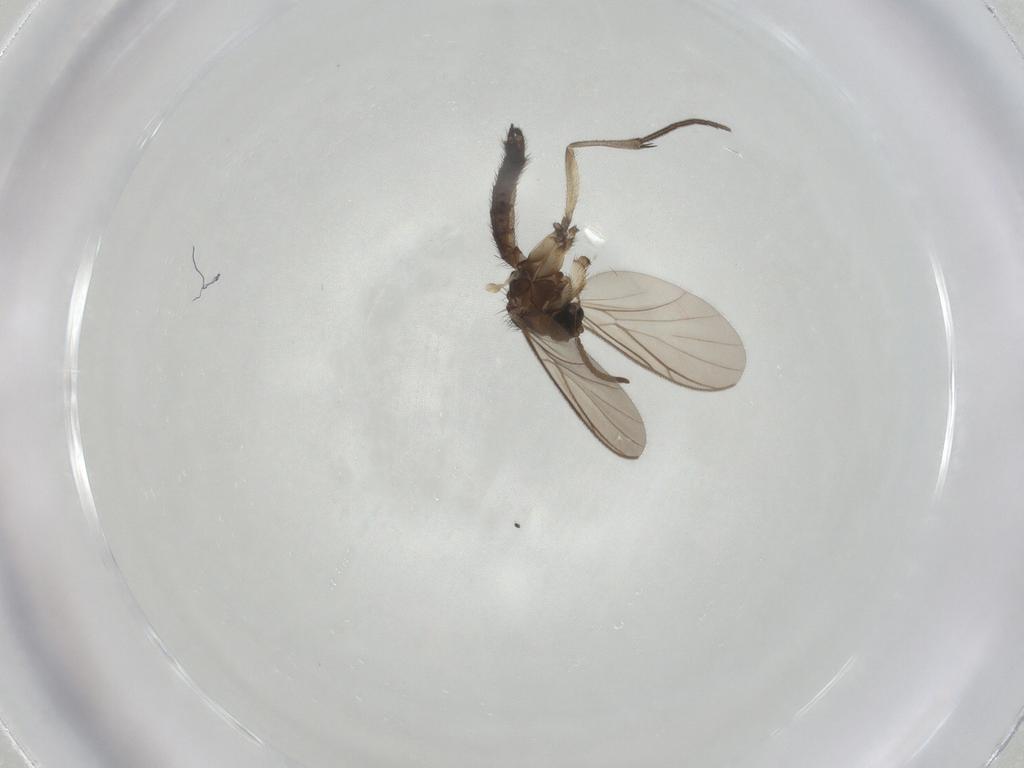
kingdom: Animalia
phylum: Arthropoda
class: Insecta
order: Diptera
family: Keroplatidae
